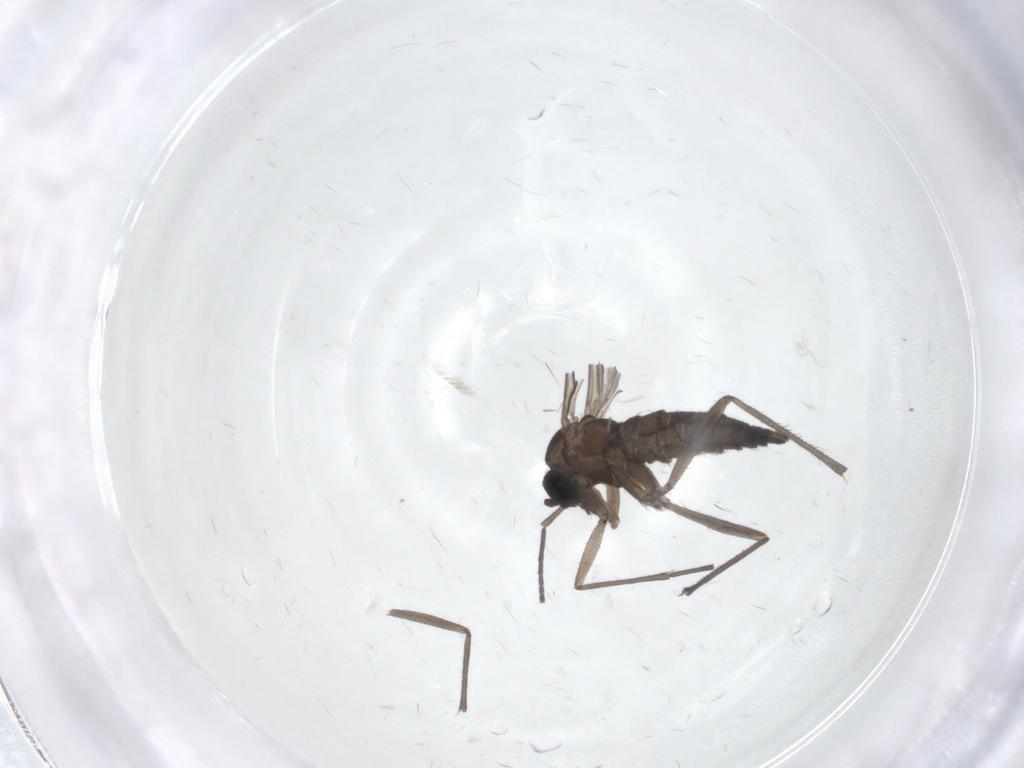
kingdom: Animalia
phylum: Arthropoda
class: Insecta
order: Diptera
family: Sciaridae
